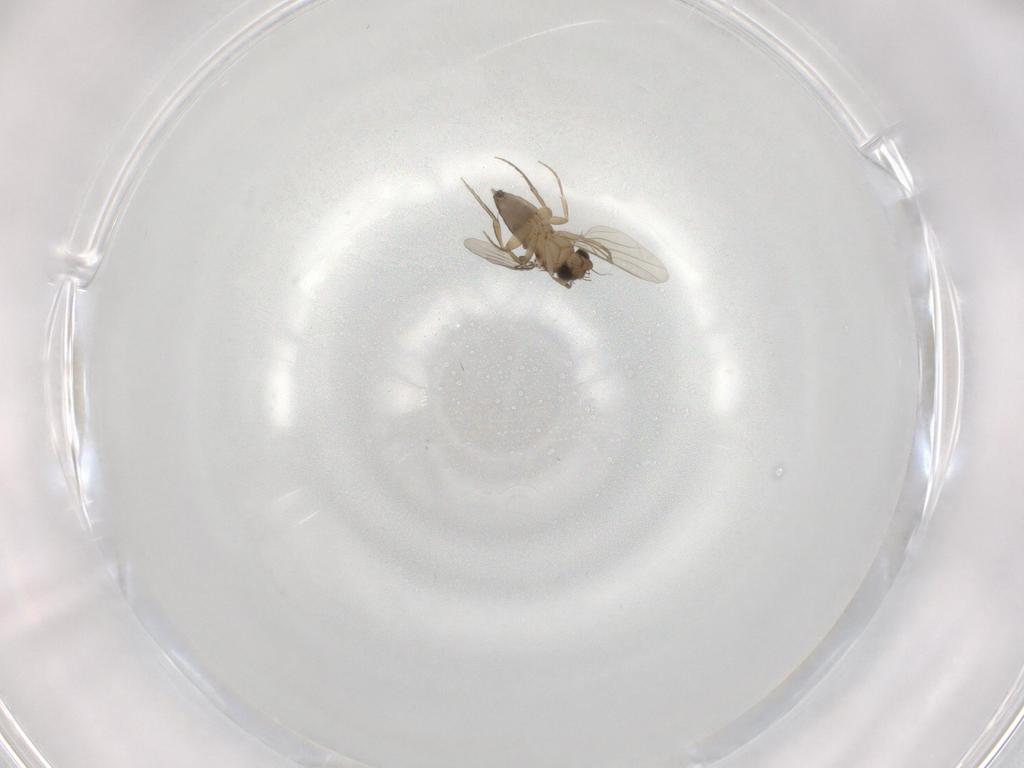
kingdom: Animalia
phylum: Arthropoda
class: Insecta
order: Diptera
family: Phoridae
